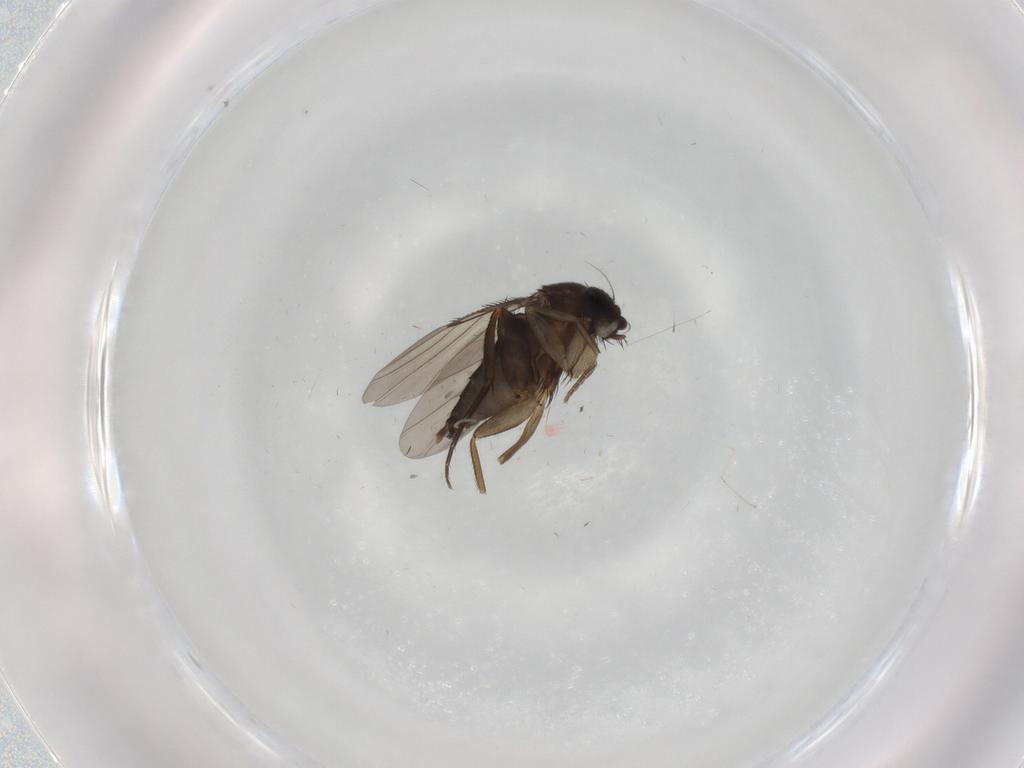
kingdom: Animalia
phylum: Arthropoda
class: Insecta
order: Diptera
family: Phoridae
